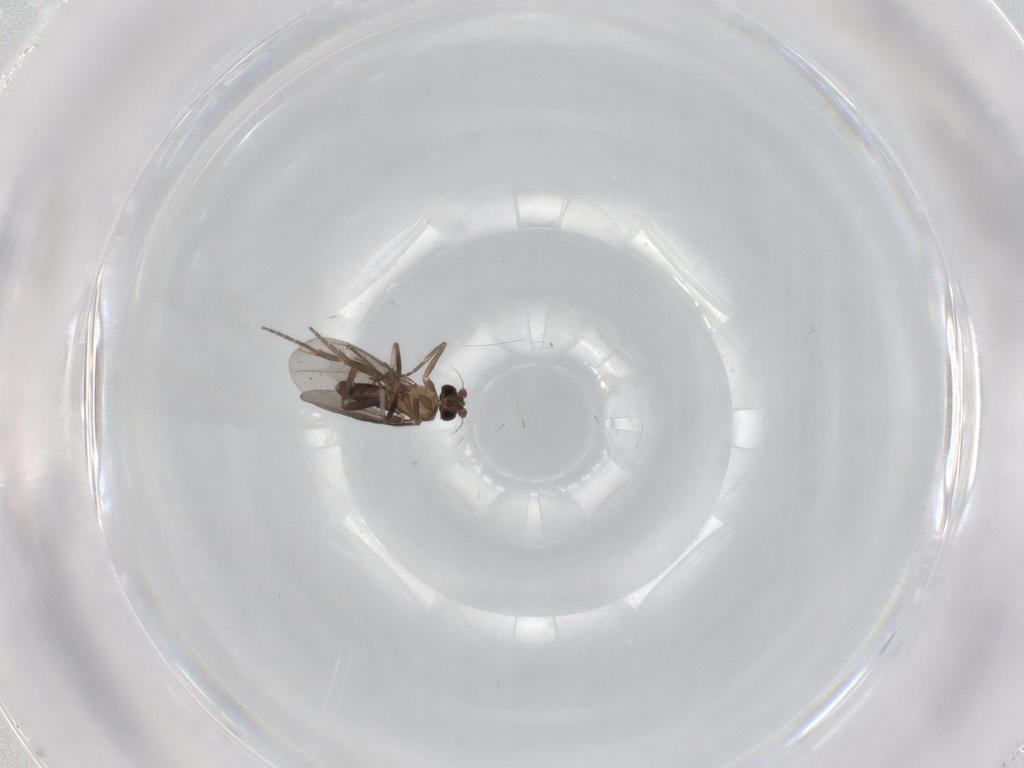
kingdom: Animalia
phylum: Arthropoda
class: Insecta
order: Diptera
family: Phoridae
